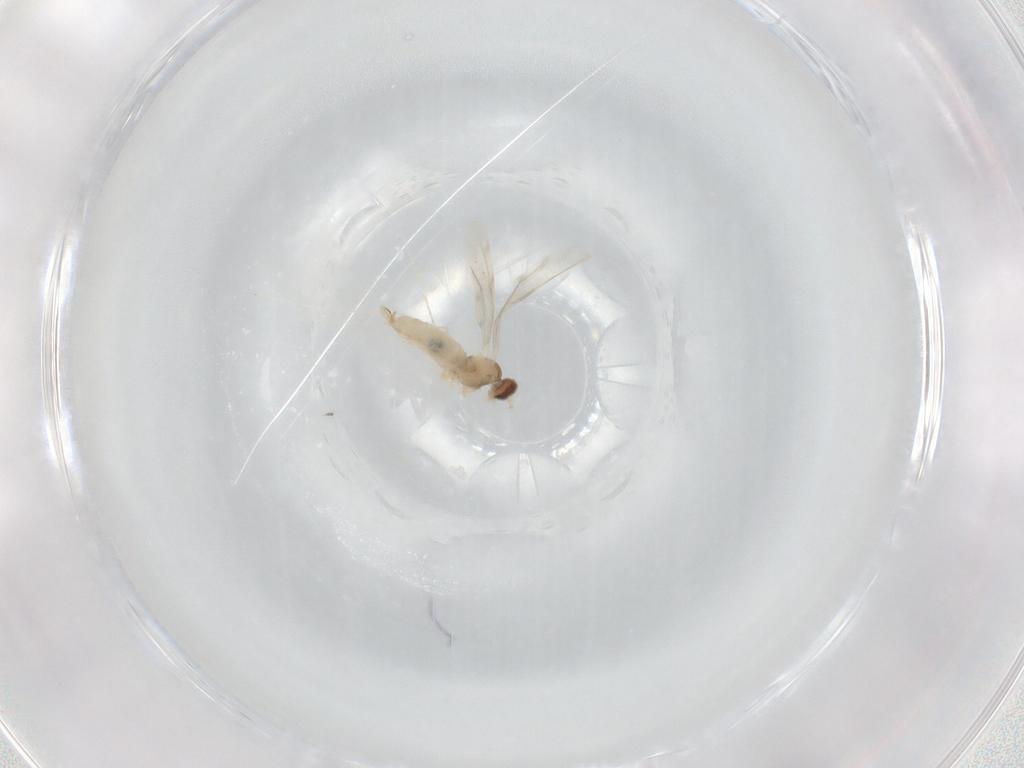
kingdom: Animalia
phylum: Arthropoda
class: Insecta
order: Diptera
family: Cecidomyiidae
